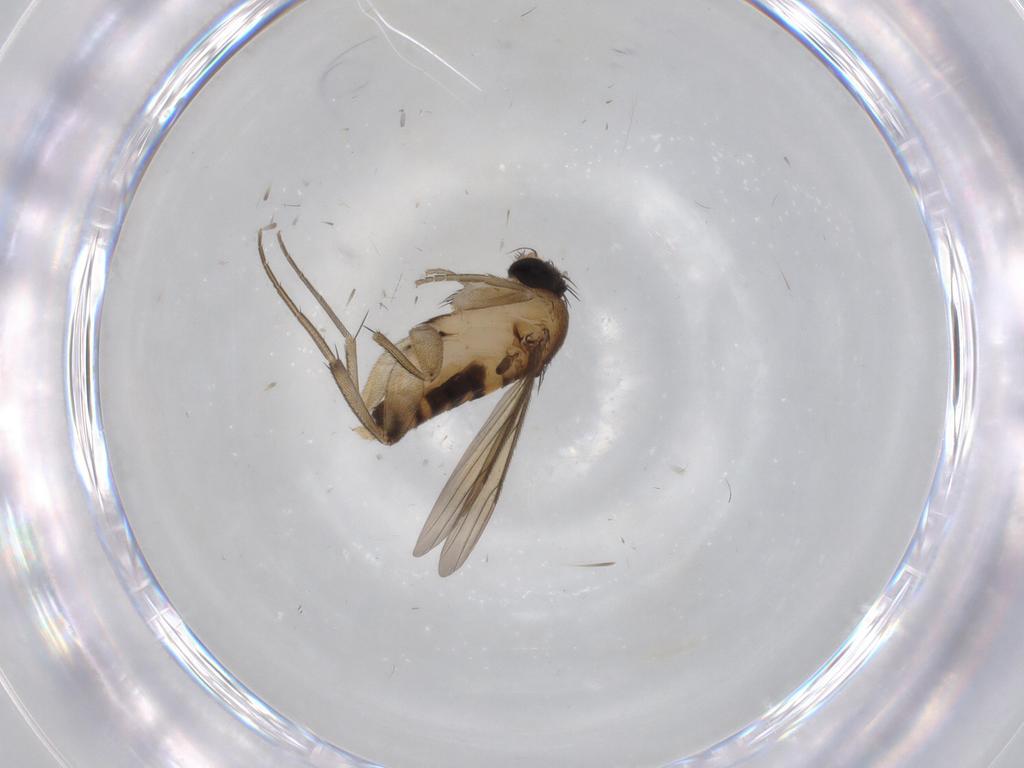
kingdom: Animalia
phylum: Arthropoda
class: Insecta
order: Diptera
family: Phoridae
